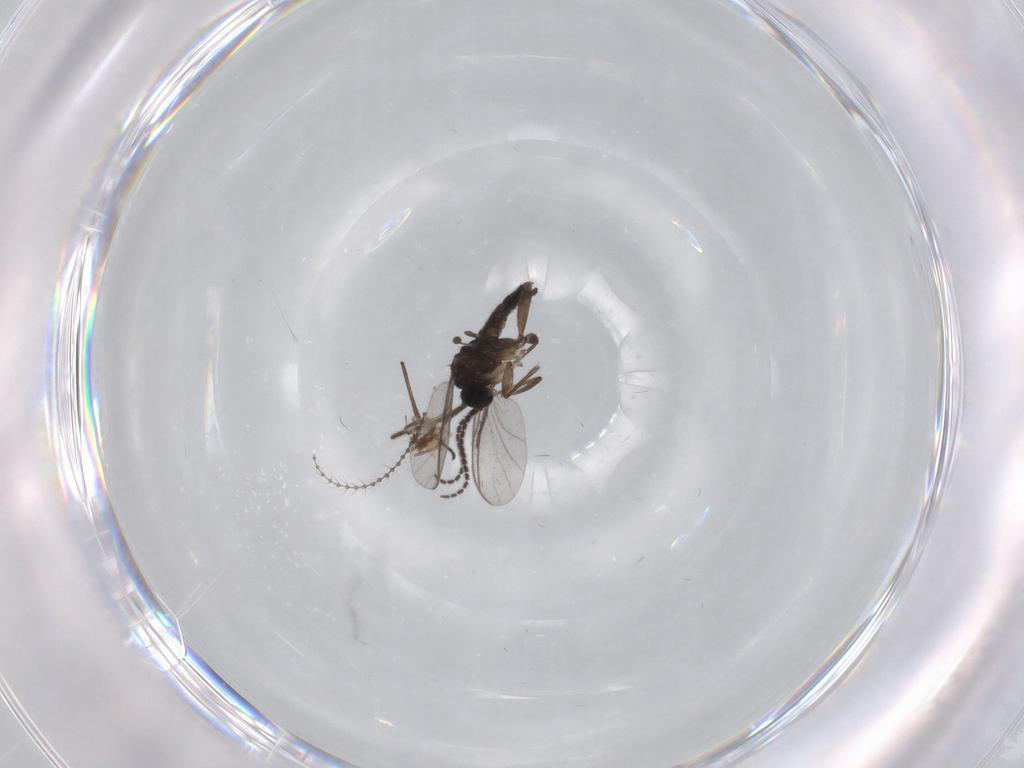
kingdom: Animalia
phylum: Arthropoda
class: Insecta
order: Diptera
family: Sciaridae
